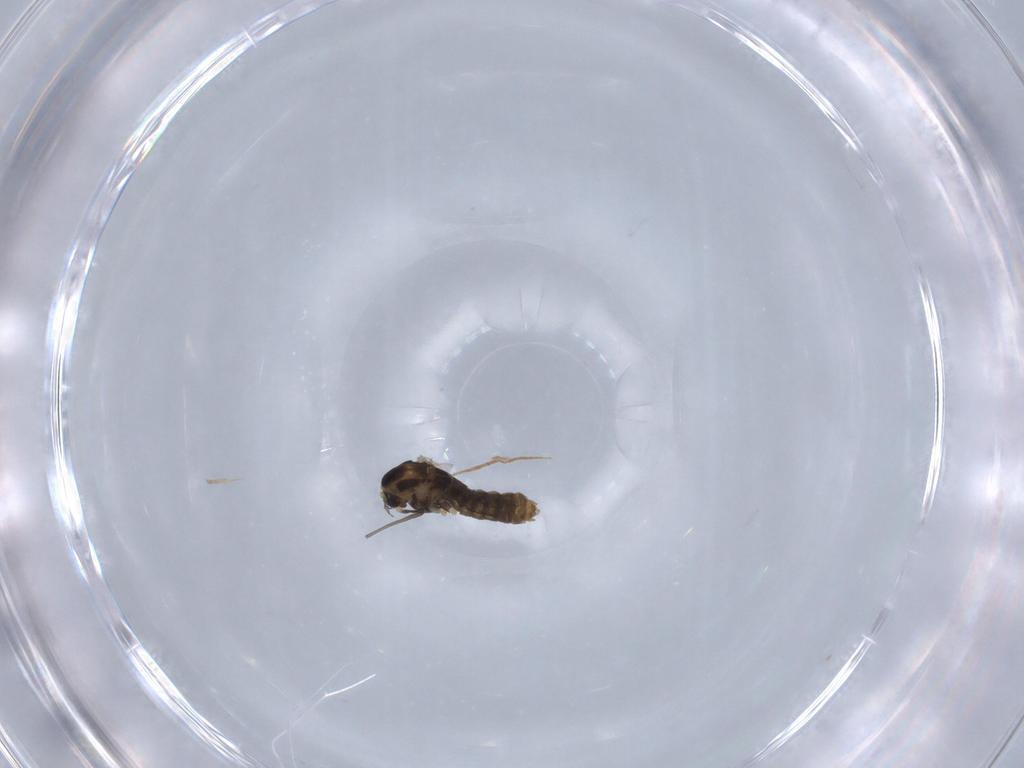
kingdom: Animalia
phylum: Arthropoda
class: Insecta
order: Diptera
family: Chironomidae
